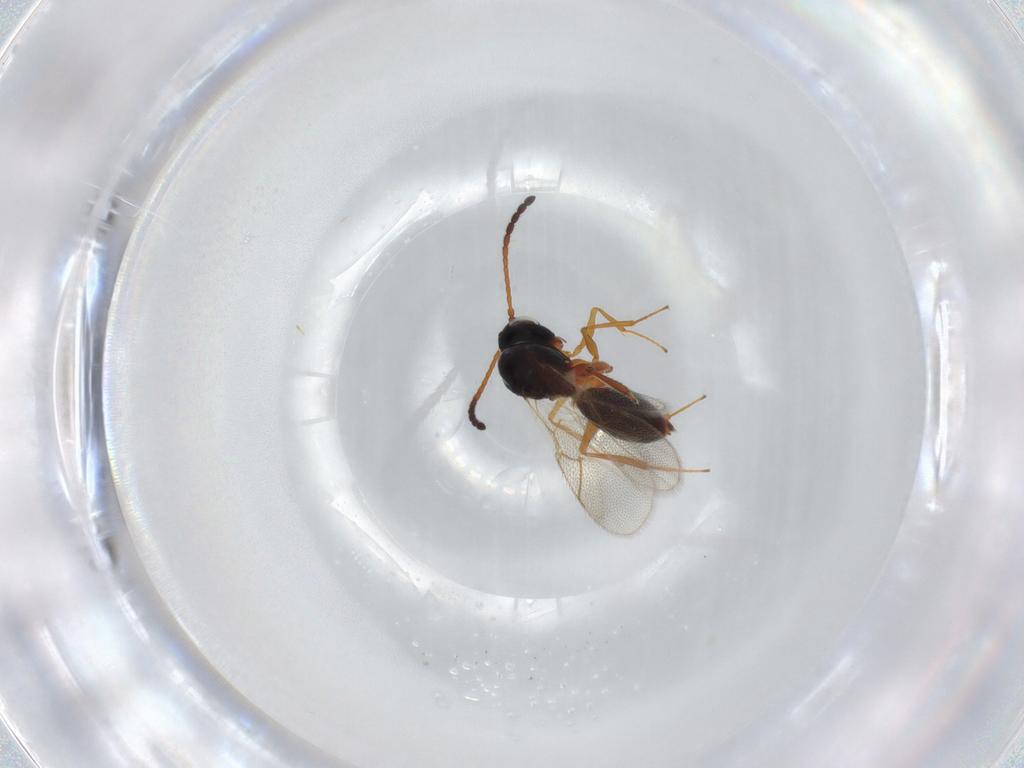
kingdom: Animalia
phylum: Arthropoda
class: Insecta
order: Hymenoptera
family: Figitidae
